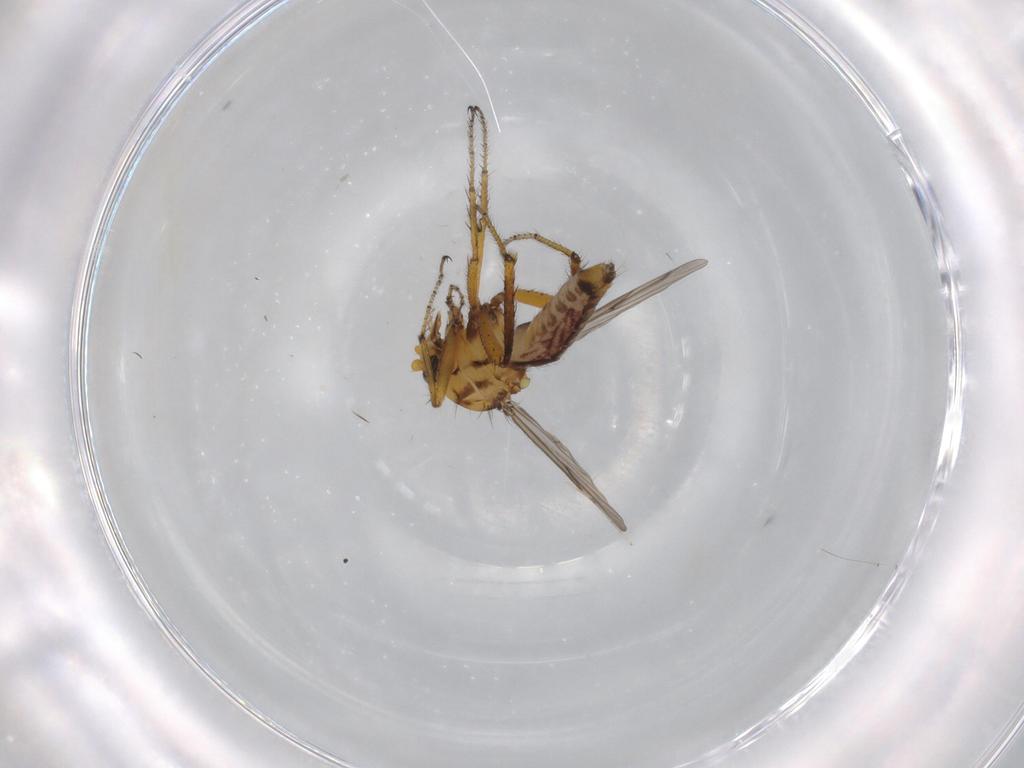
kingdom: Animalia
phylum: Arthropoda
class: Insecta
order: Diptera
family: Ceratopogonidae
